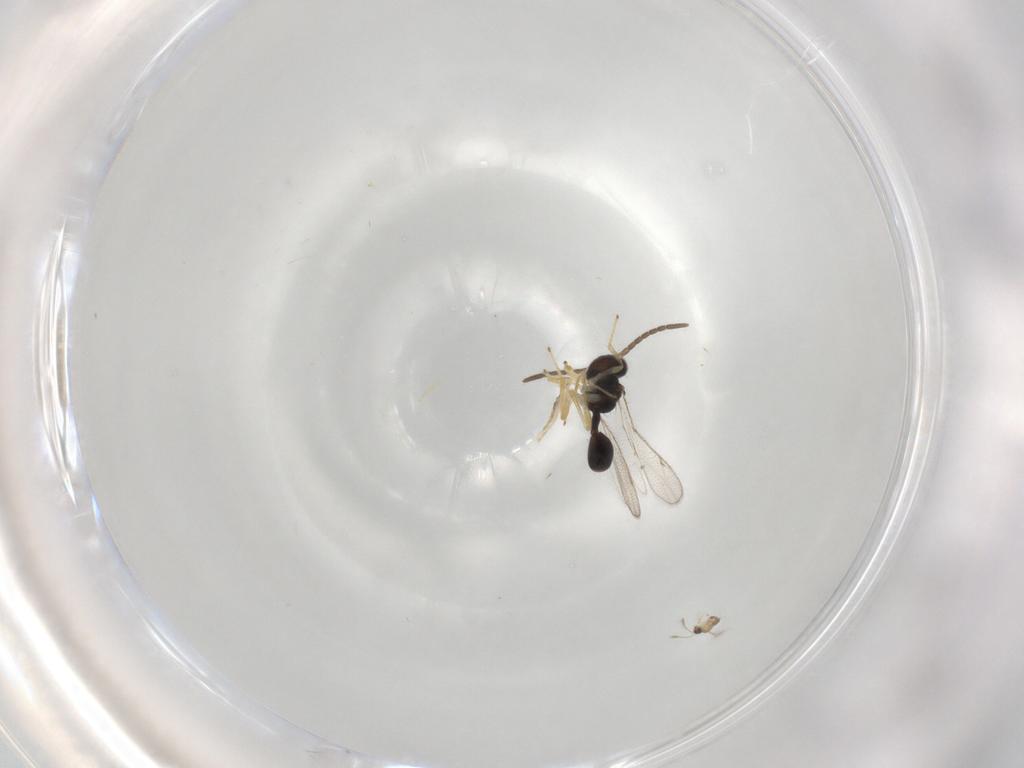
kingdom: Animalia
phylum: Arthropoda
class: Insecta
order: Hymenoptera
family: Diparidae
